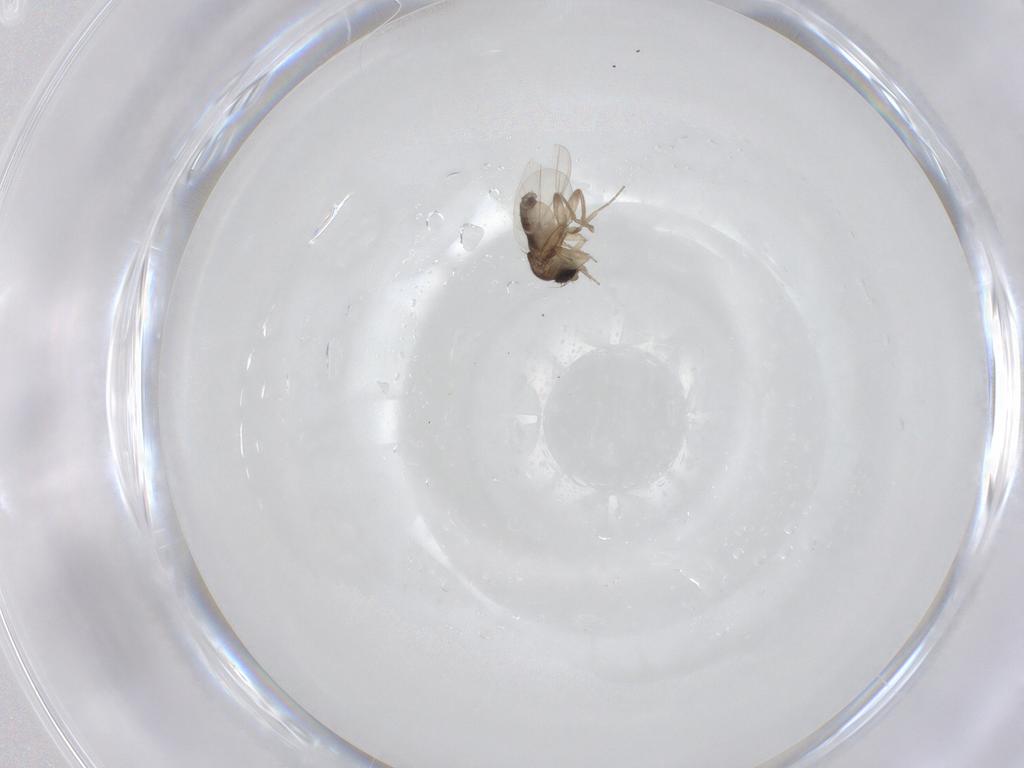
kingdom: Animalia
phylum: Arthropoda
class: Insecta
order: Diptera
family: Phoridae
